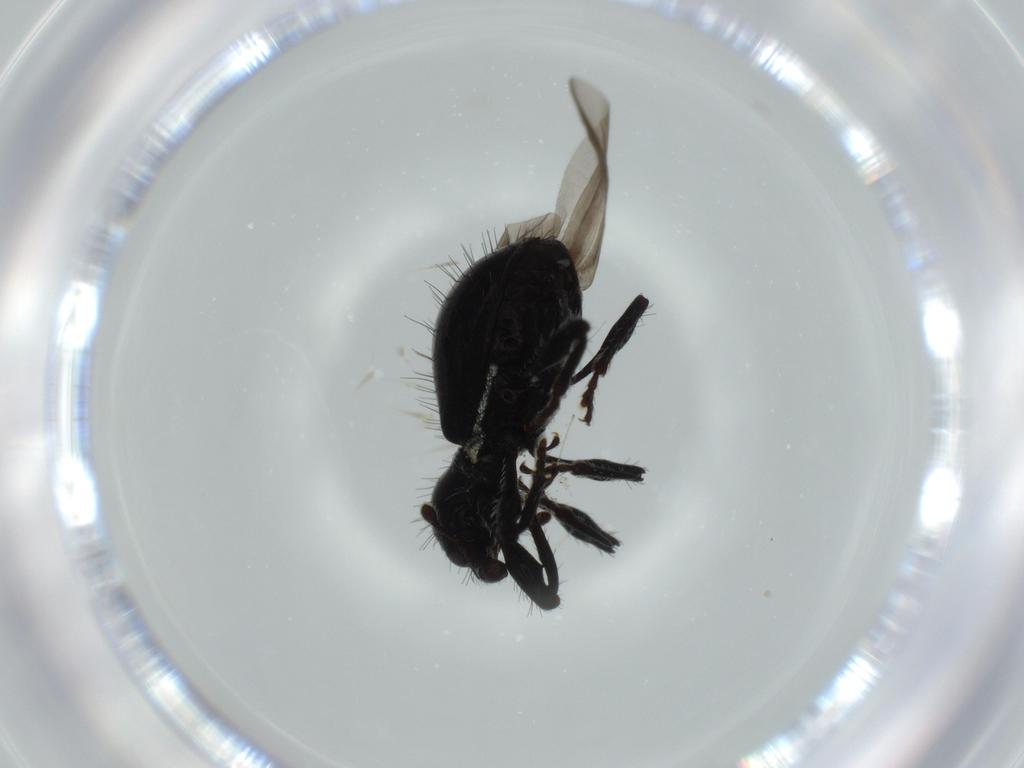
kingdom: Animalia
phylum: Arthropoda
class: Insecta
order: Coleoptera
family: Curculionidae
